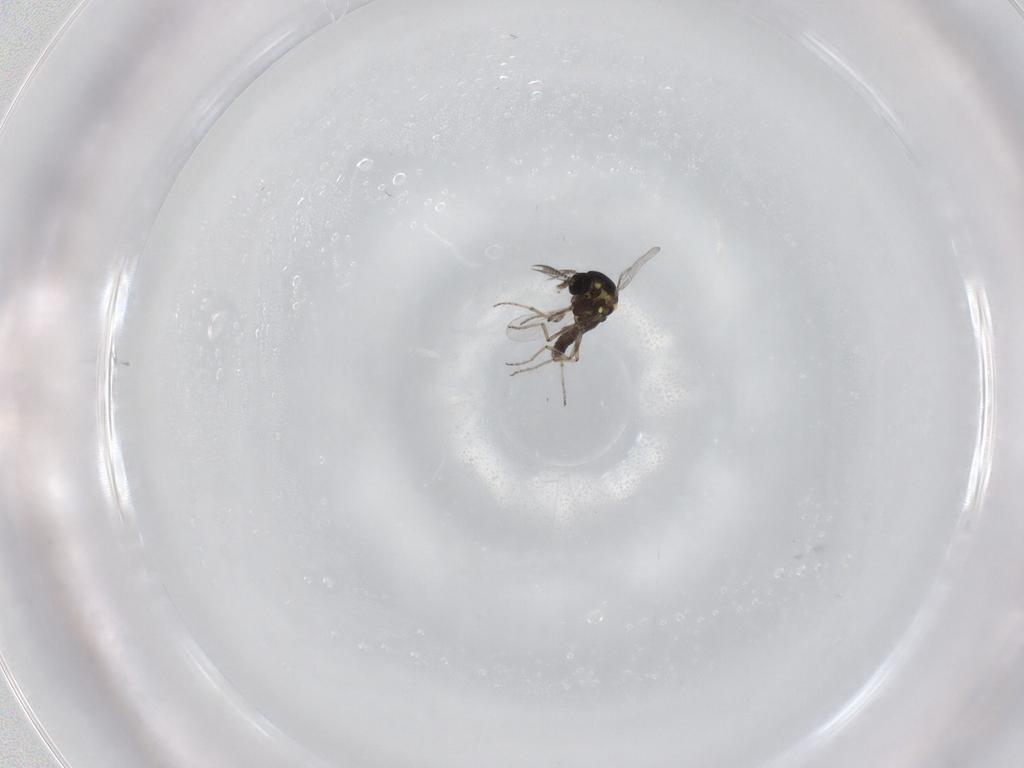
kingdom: Animalia
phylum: Arthropoda
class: Insecta
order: Diptera
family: Ceratopogonidae
